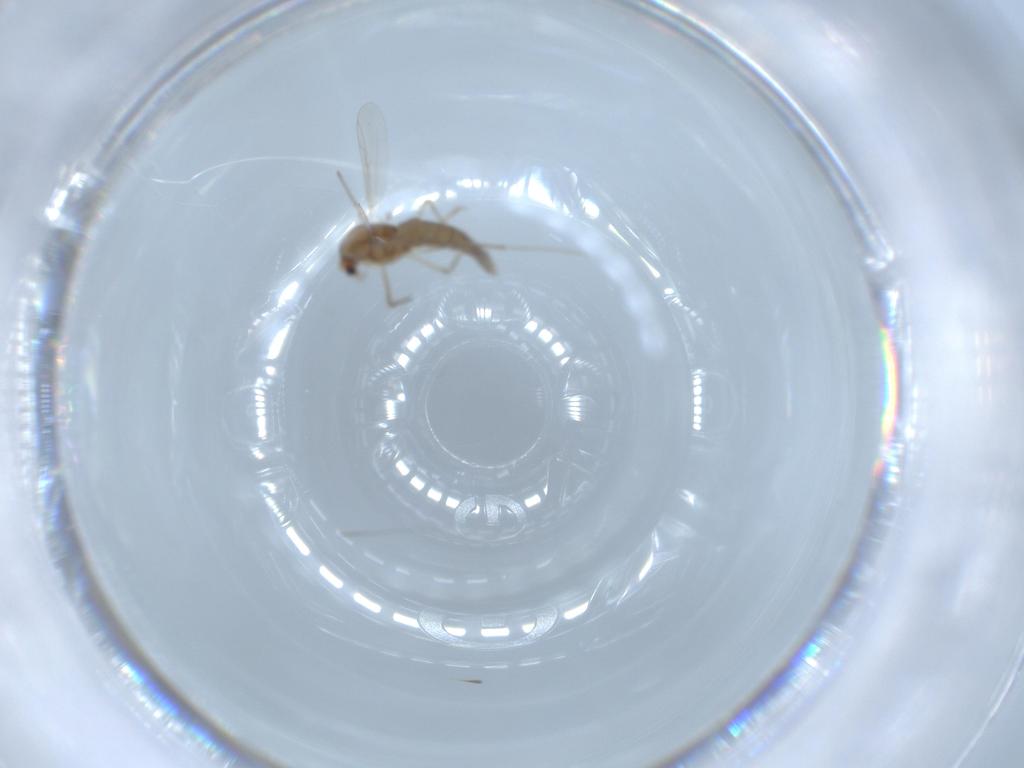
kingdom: Animalia
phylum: Arthropoda
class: Insecta
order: Diptera
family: Chironomidae
